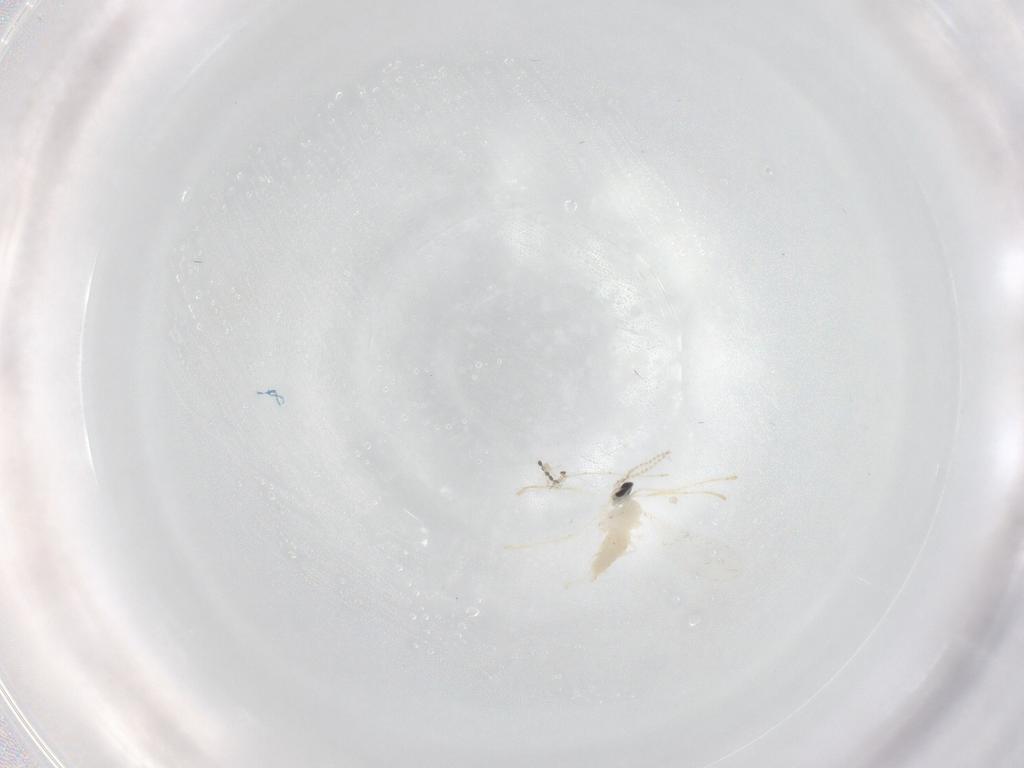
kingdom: Animalia
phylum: Arthropoda
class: Insecta
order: Diptera
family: Cecidomyiidae
